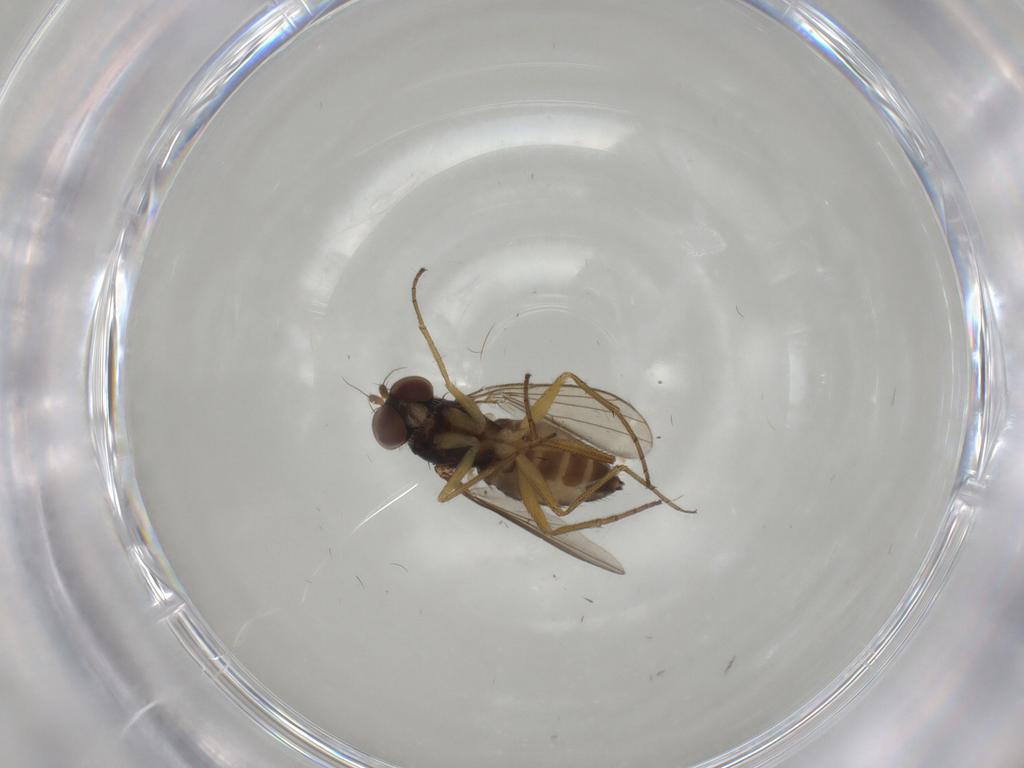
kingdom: Animalia
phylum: Arthropoda
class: Insecta
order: Diptera
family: Dolichopodidae
